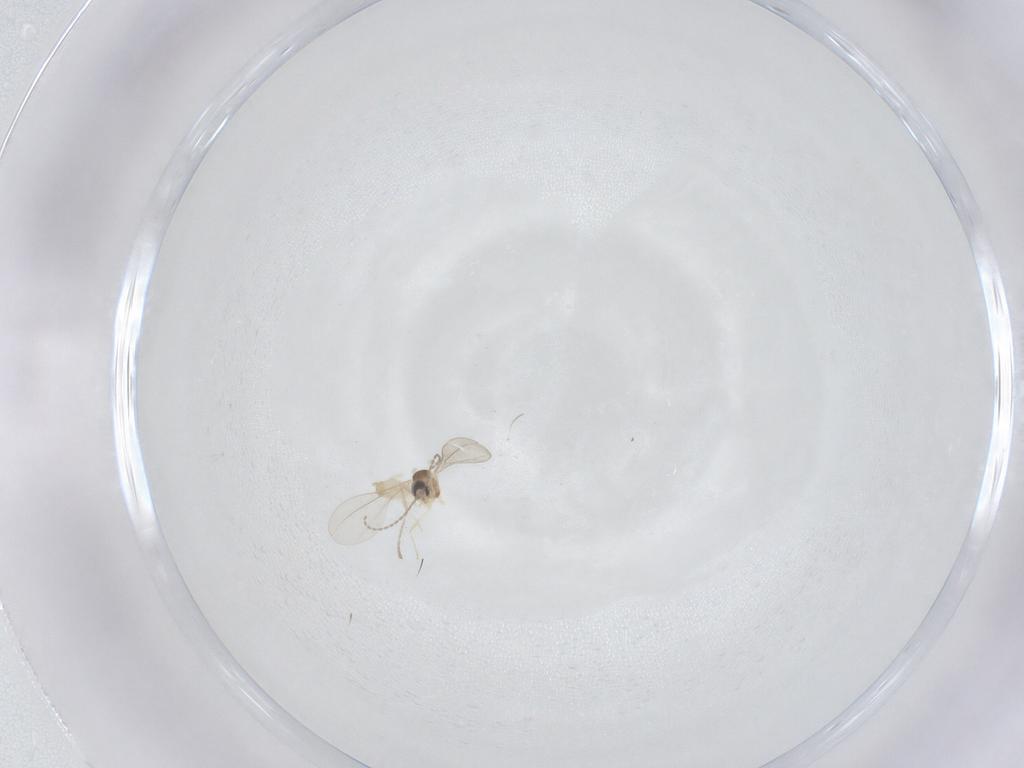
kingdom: Animalia
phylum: Arthropoda
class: Insecta
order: Diptera
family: Cecidomyiidae
